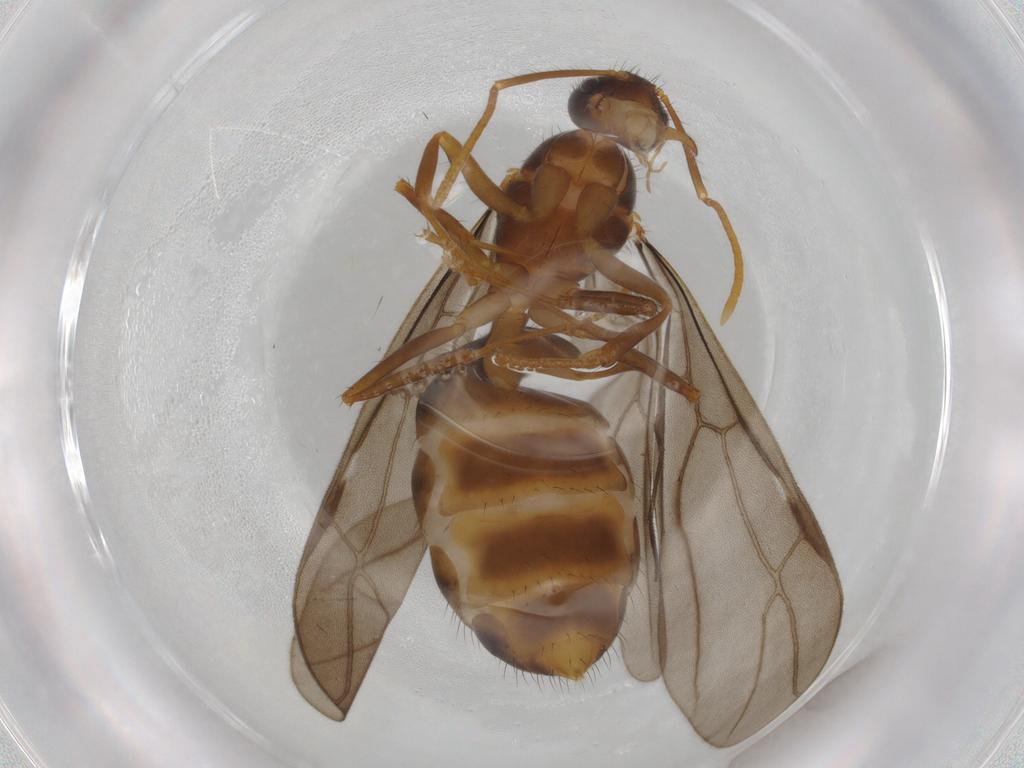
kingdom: Animalia
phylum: Arthropoda
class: Insecta
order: Hymenoptera
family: Formicidae
